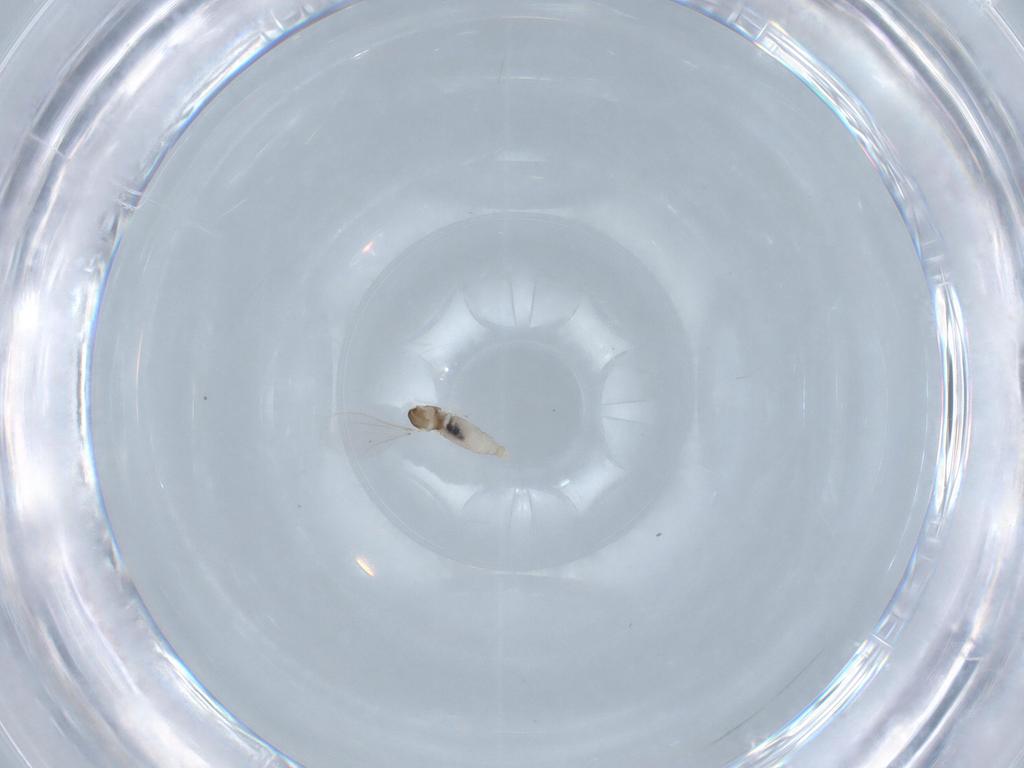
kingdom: Animalia
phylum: Arthropoda
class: Insecta
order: Diptera
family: Cecidomyiidae
